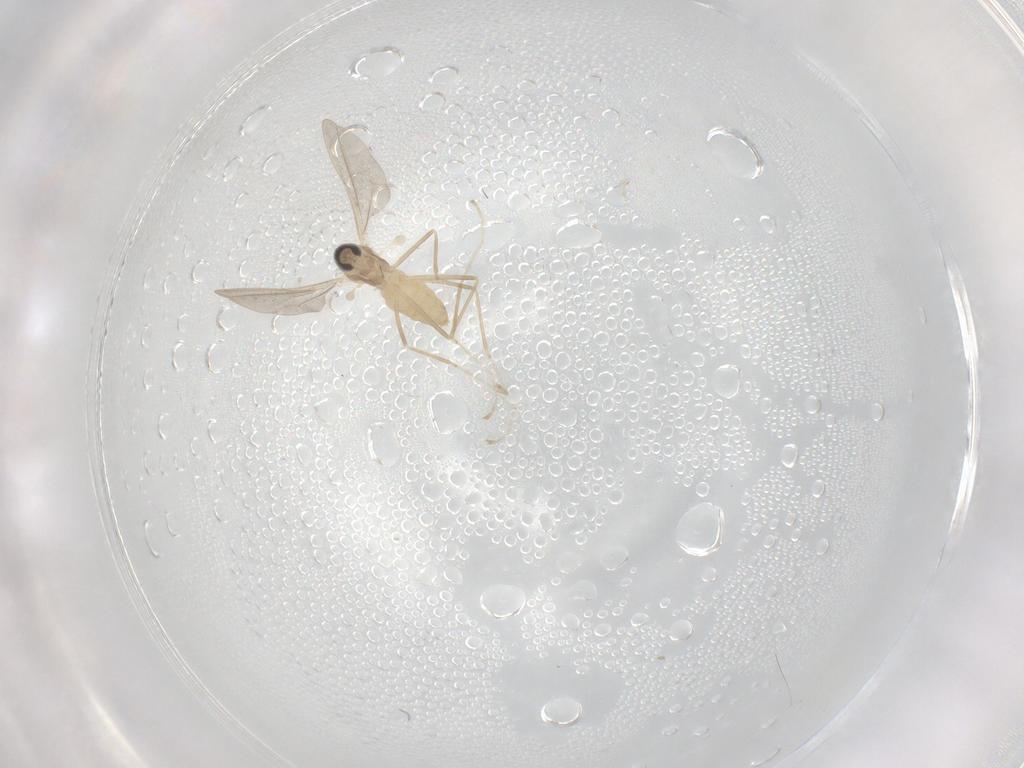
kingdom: Animalia
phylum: Arthropoda
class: Insecta
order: Diptera
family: Cecidomyiidae
